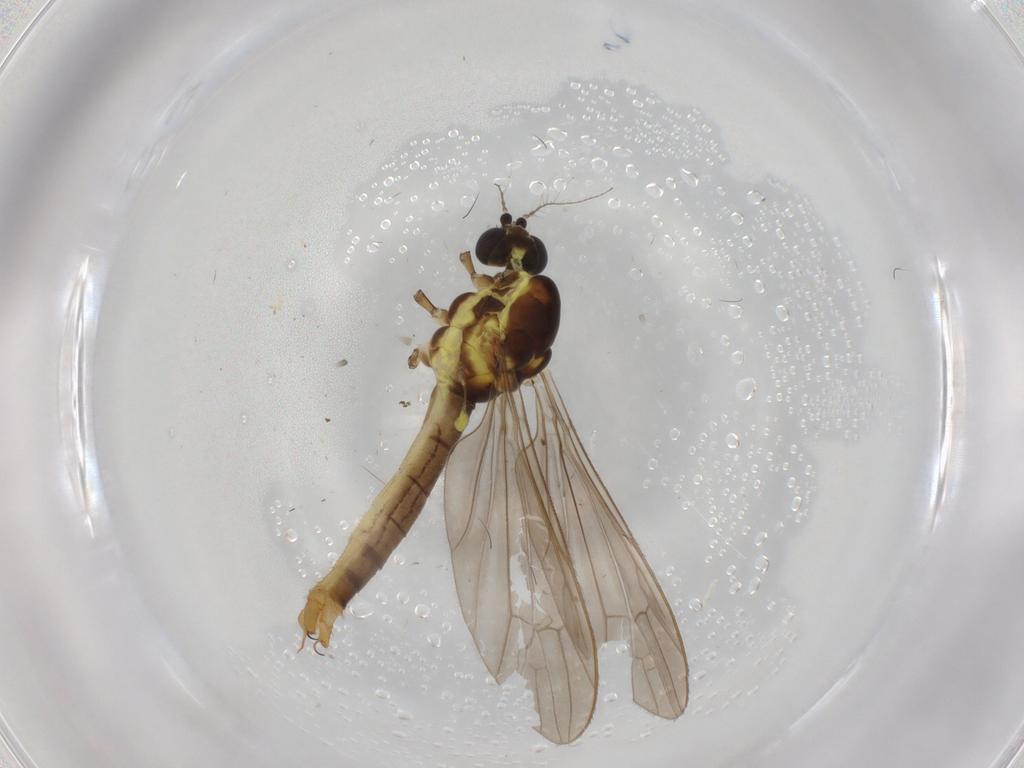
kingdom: Animalia
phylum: Arthropoda
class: Insecta
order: Diptera
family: Limoniidae
